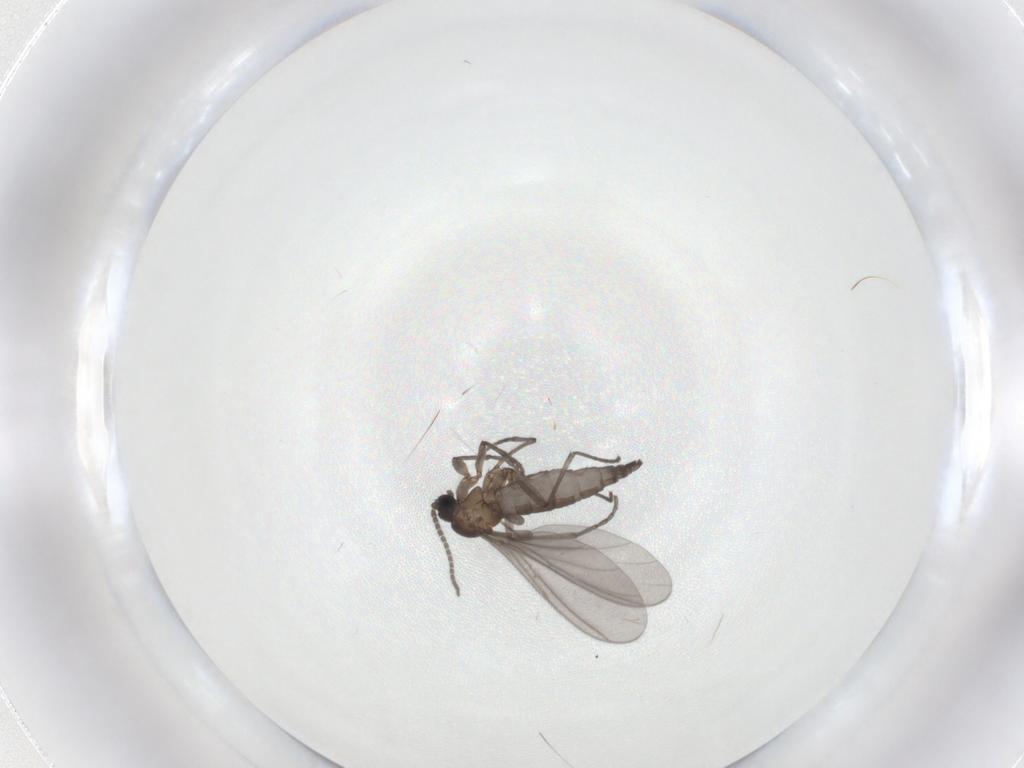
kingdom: Animalia
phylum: Arthropoda
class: Insecta
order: Diptera
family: Sciaridae
